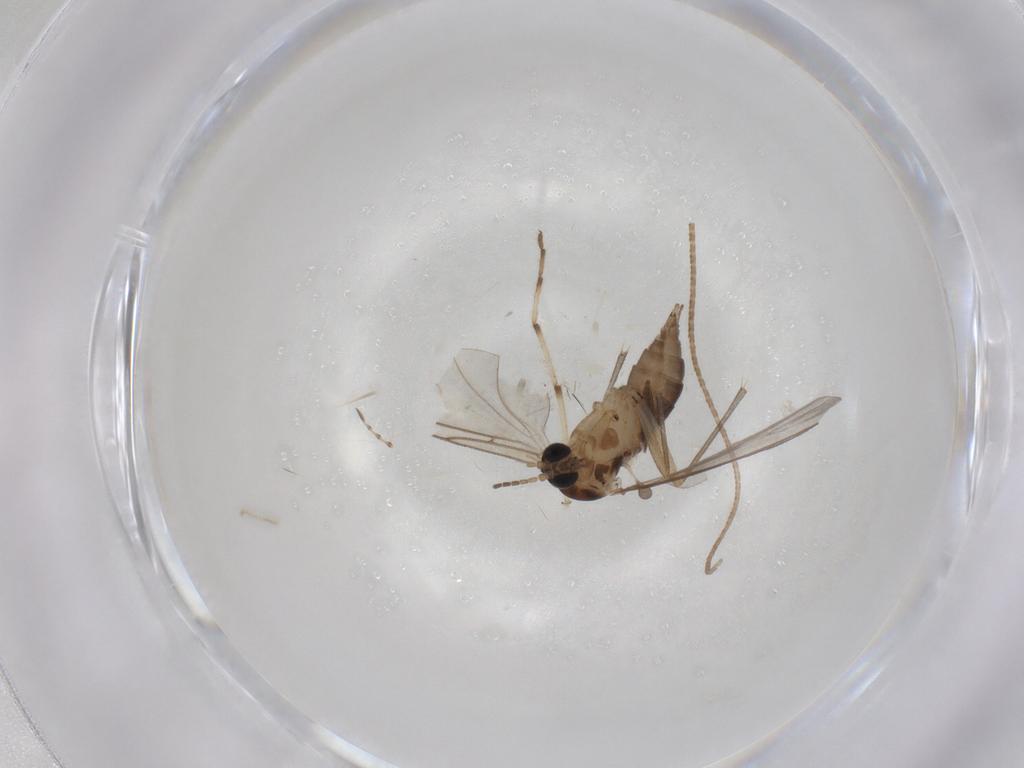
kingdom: Animalia
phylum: Arthropoda
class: Insecta
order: Diptera
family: Sciaridae
